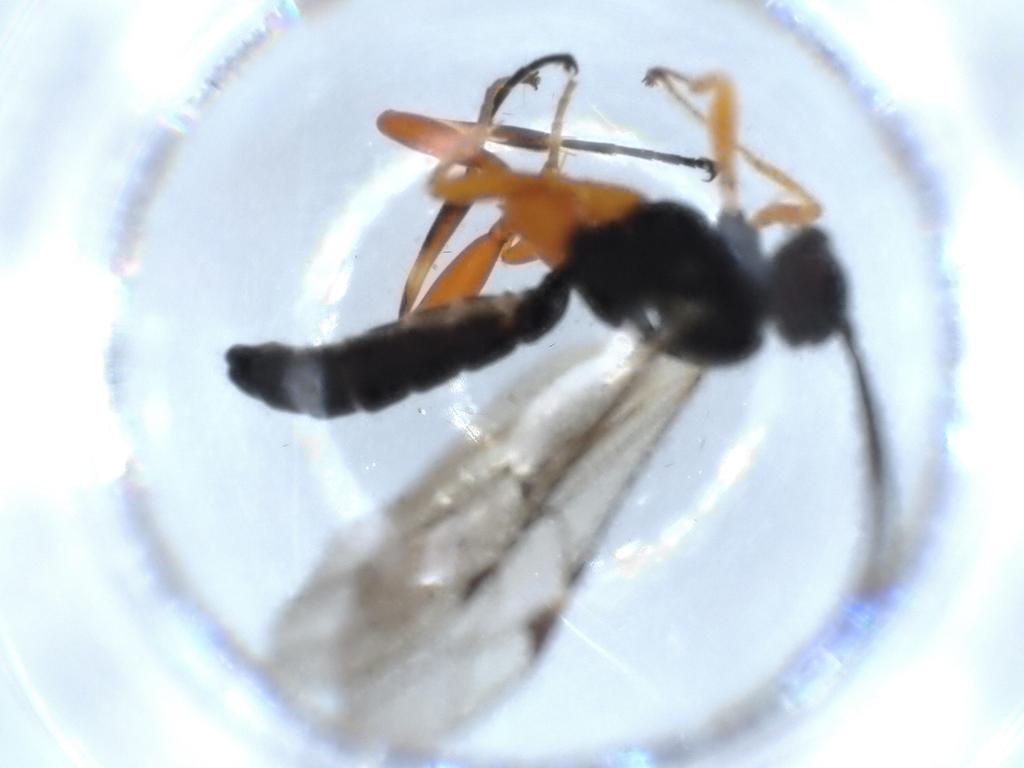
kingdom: Animalia
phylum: Arthropoda
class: Insecta
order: Hymenoptera
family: Ichneumonidae
